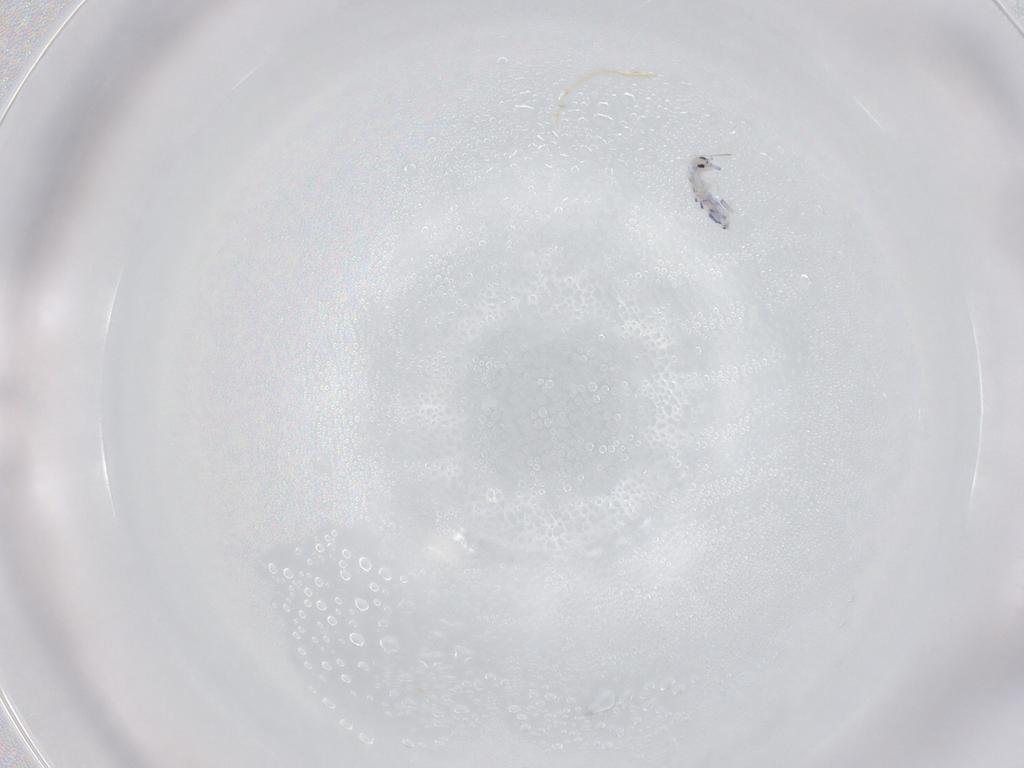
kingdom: Animalia
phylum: Arthropoda
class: Collembola
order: Entomobryomorpha
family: Entomobryidae
